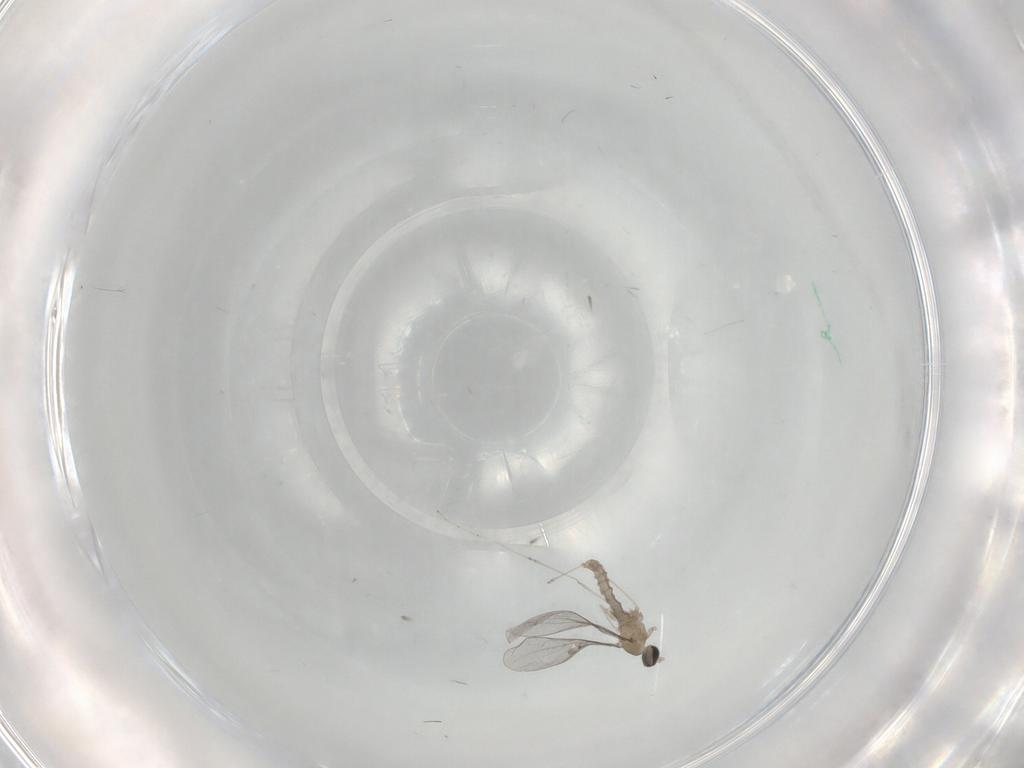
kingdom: Animalia
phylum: Arthropoda
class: Insecta
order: Diptera
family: Cecidomyiidae
